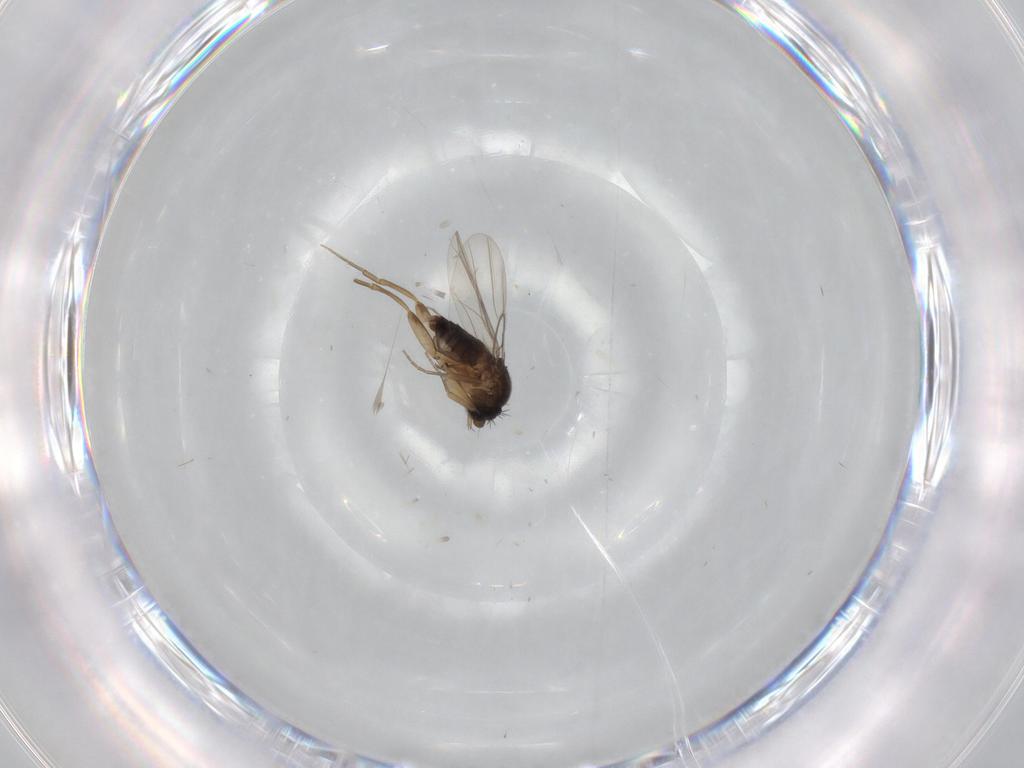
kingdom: Animalia
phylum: Arthropoda
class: Insecta
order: Diptera
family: Phoridae
